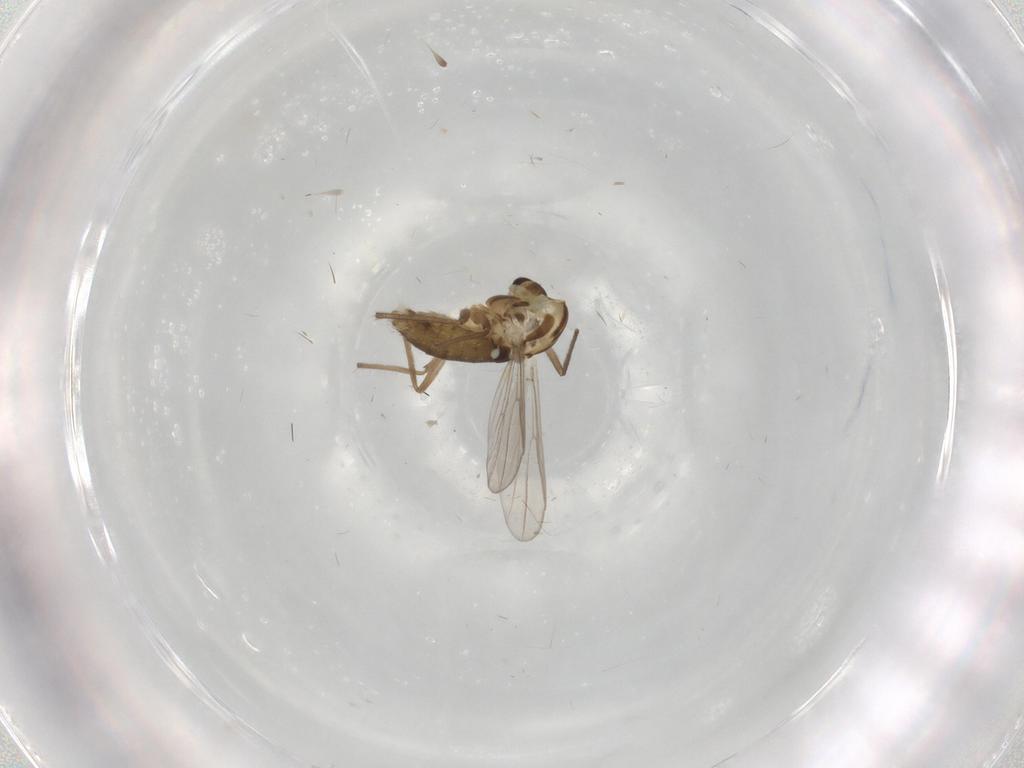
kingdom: Animalia
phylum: Arthropoda
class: Insecta
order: Diptera
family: Chironomidae
